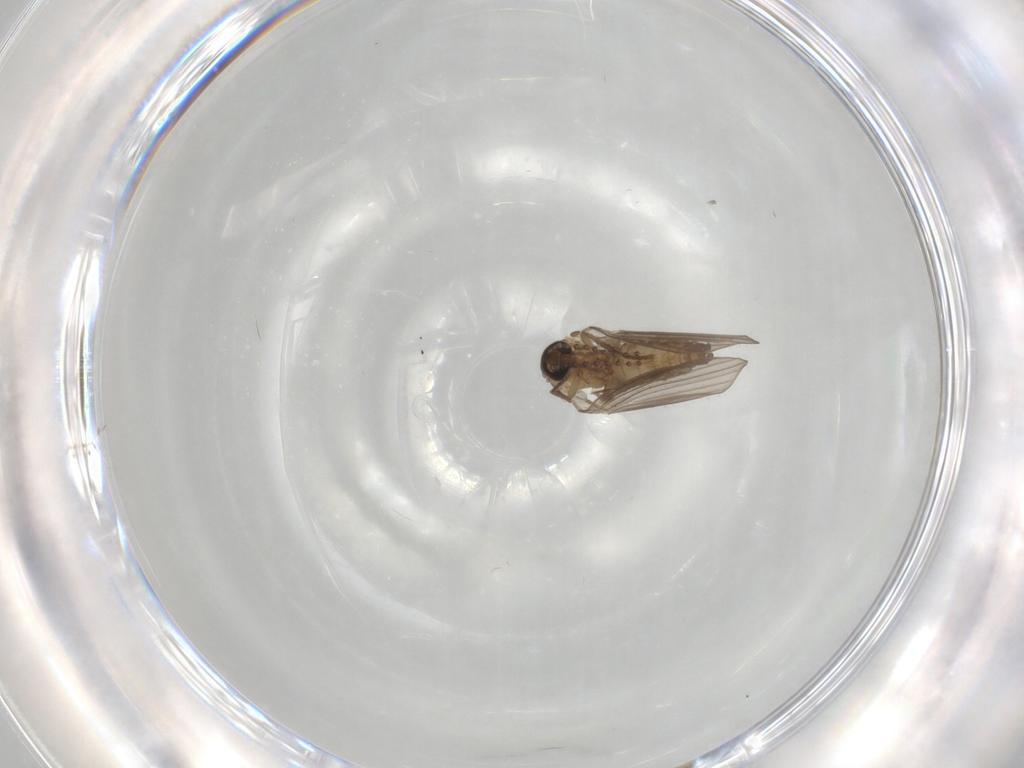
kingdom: Animalia
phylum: Arthropoda
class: Insecta
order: Diptera
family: Psychodidae
